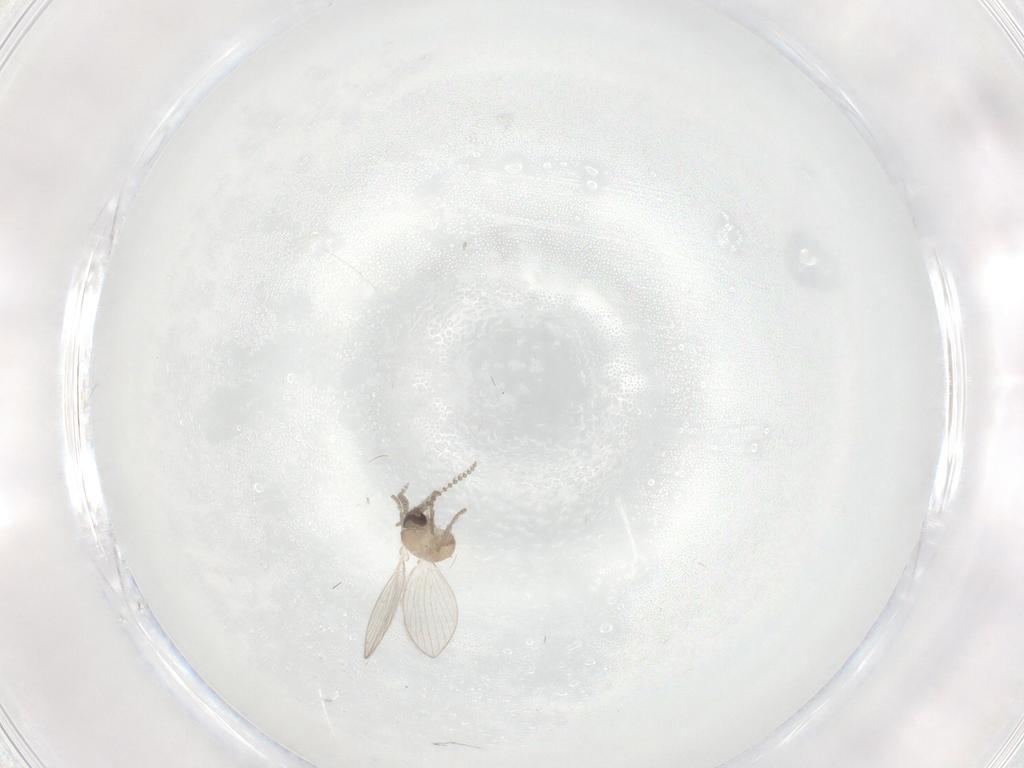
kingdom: Animalia
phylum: Arthropoda
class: Insecta
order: Diptera
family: Psychodidae
